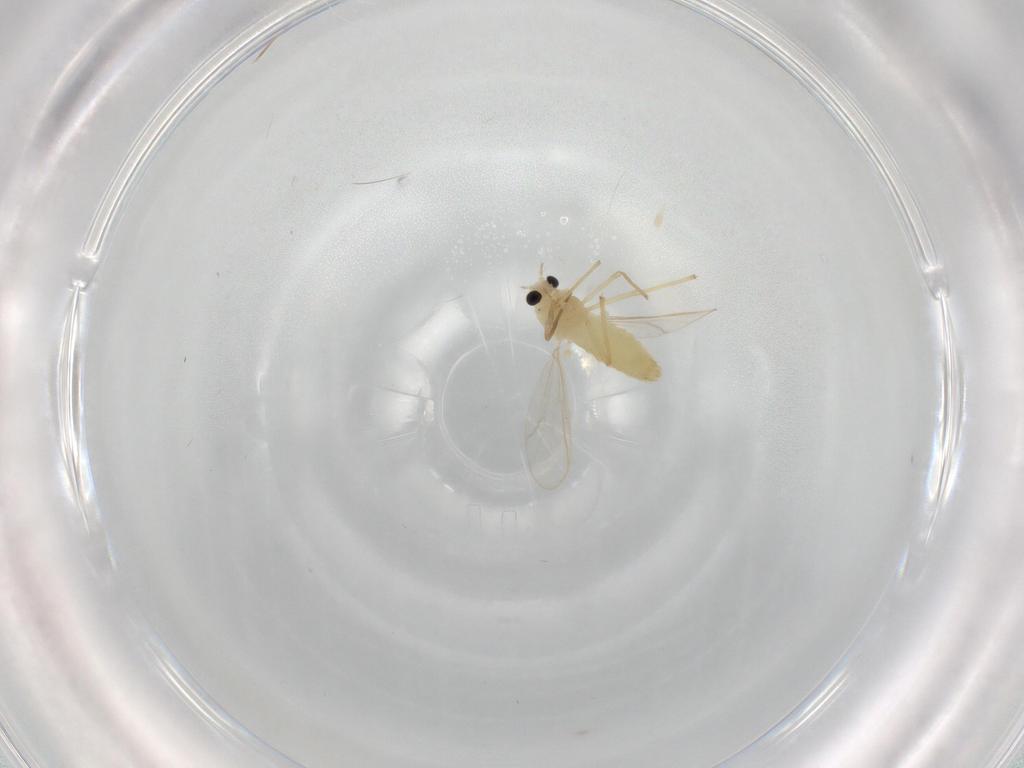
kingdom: Animalia
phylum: Arthropoda
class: Insecta
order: Diptera
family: Chironomidae
